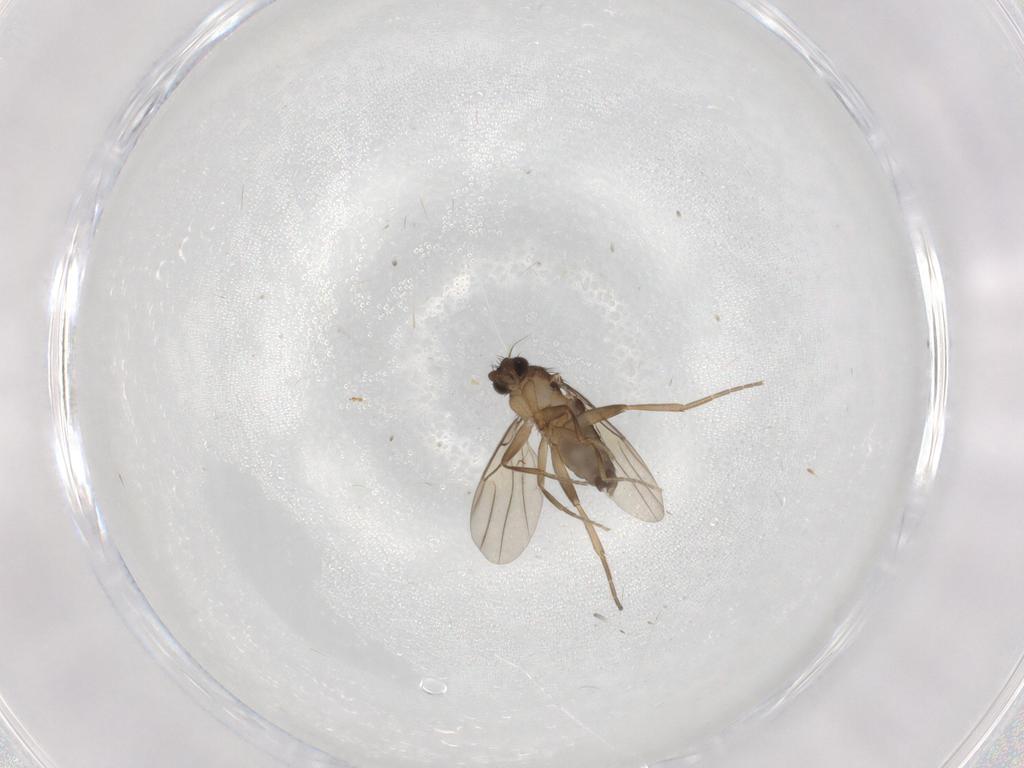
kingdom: Animalia
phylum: Arthropoda
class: Insecta
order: Diptera
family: Phoridae
